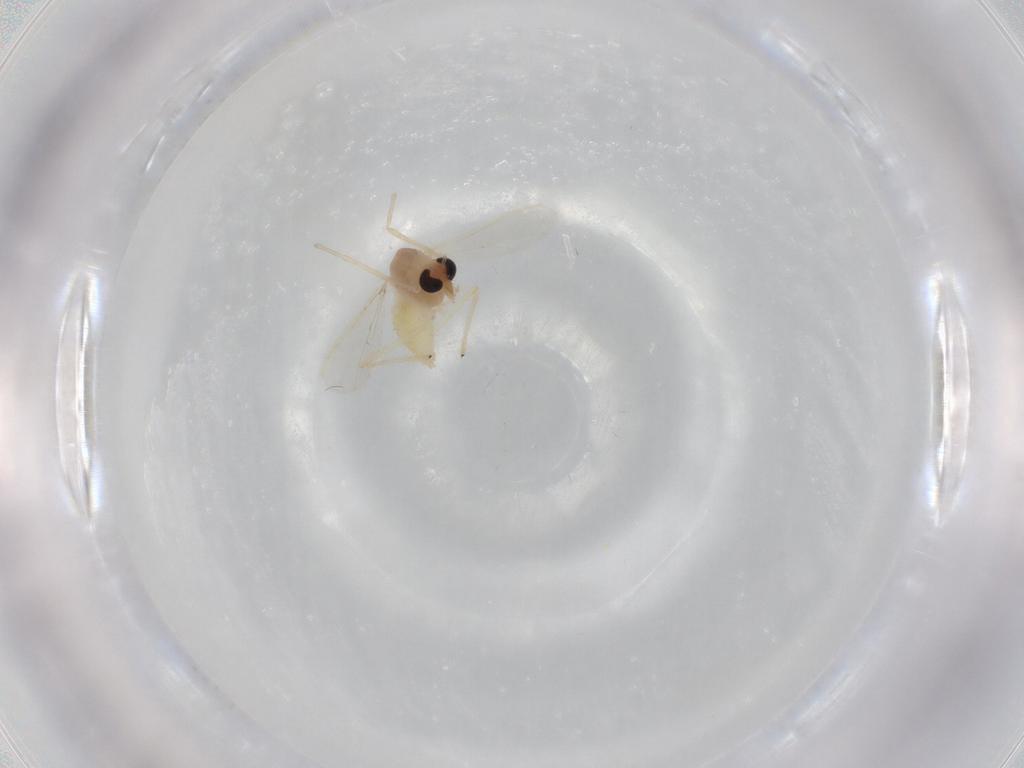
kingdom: Animalia
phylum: Arthropoda
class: Insecta
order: Diptera
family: Chironomidae
